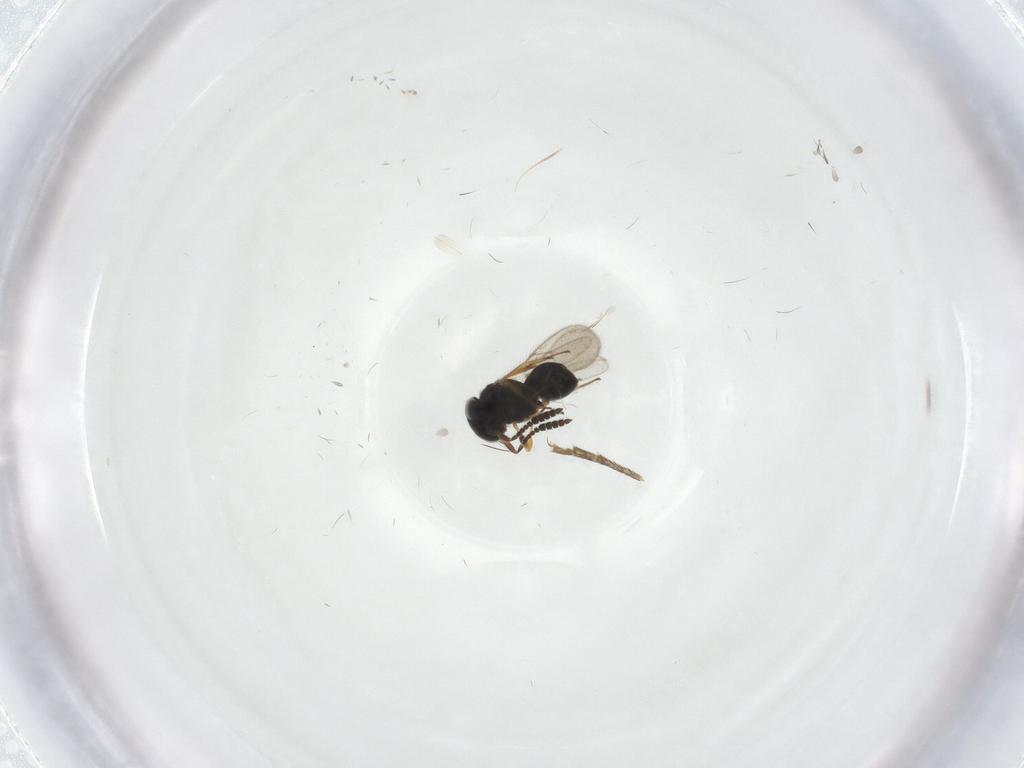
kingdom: Animalia
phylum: Arthropoda
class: Insecta
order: Hymenoptera
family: Scelionidae
